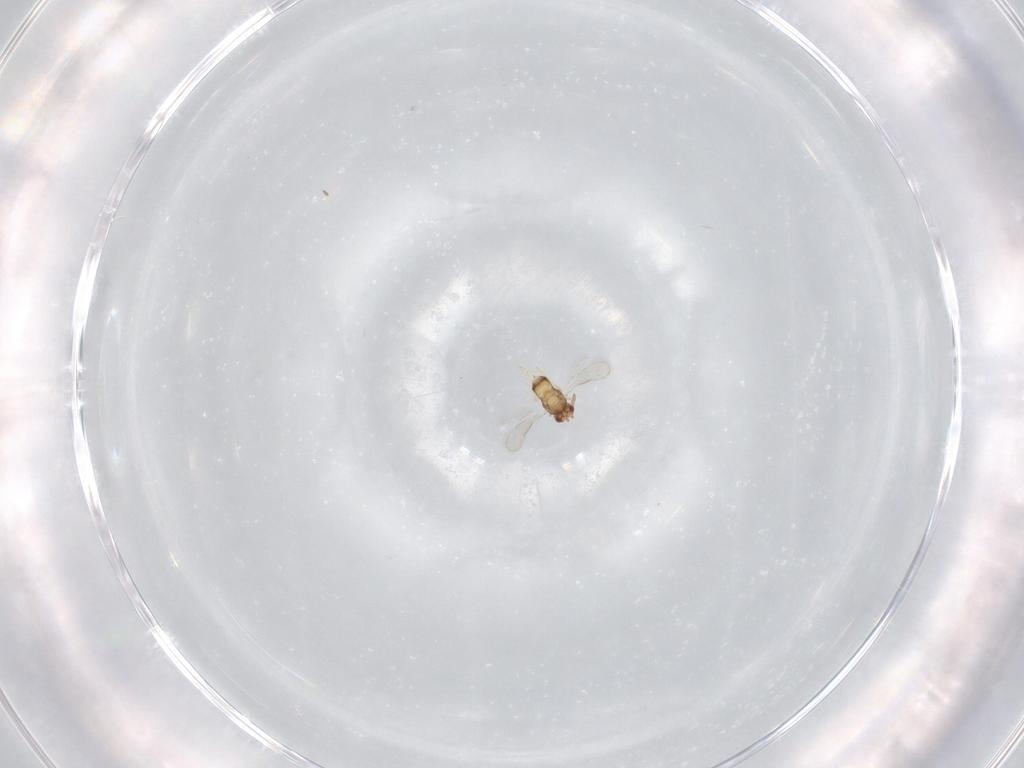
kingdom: Animalia
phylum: Arthropoda
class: Insecta
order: Hymenoptera
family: Aphelinidae
